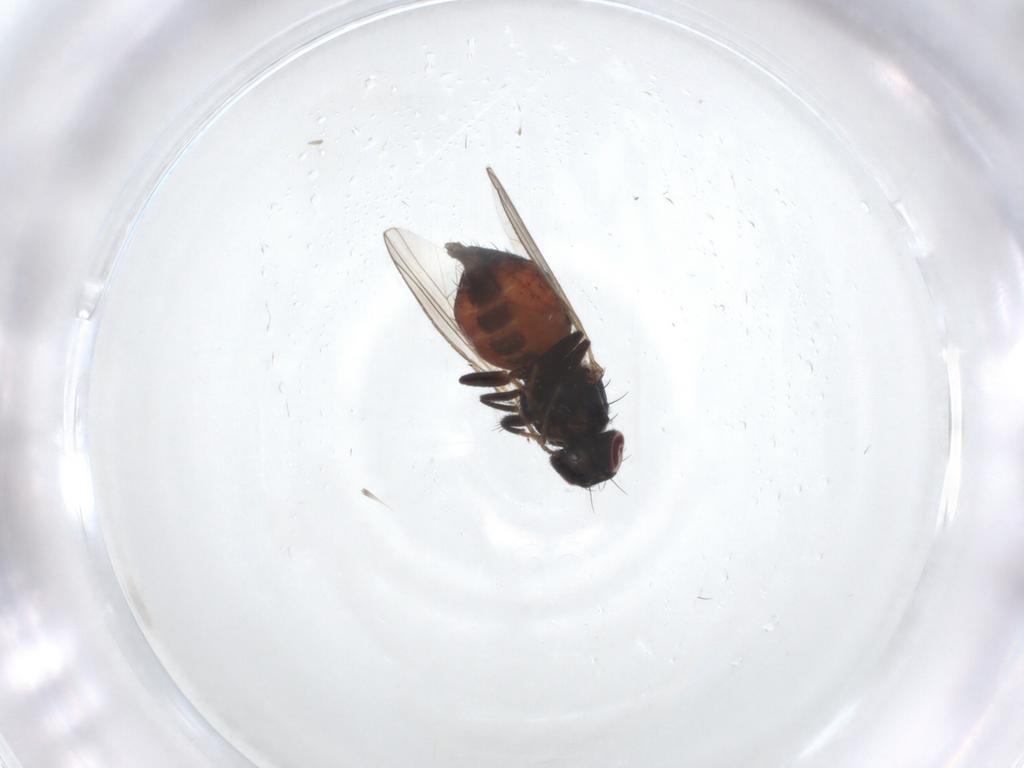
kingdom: Animalia
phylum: Arthropoda
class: Insecta
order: Diptera
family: Carnidae
